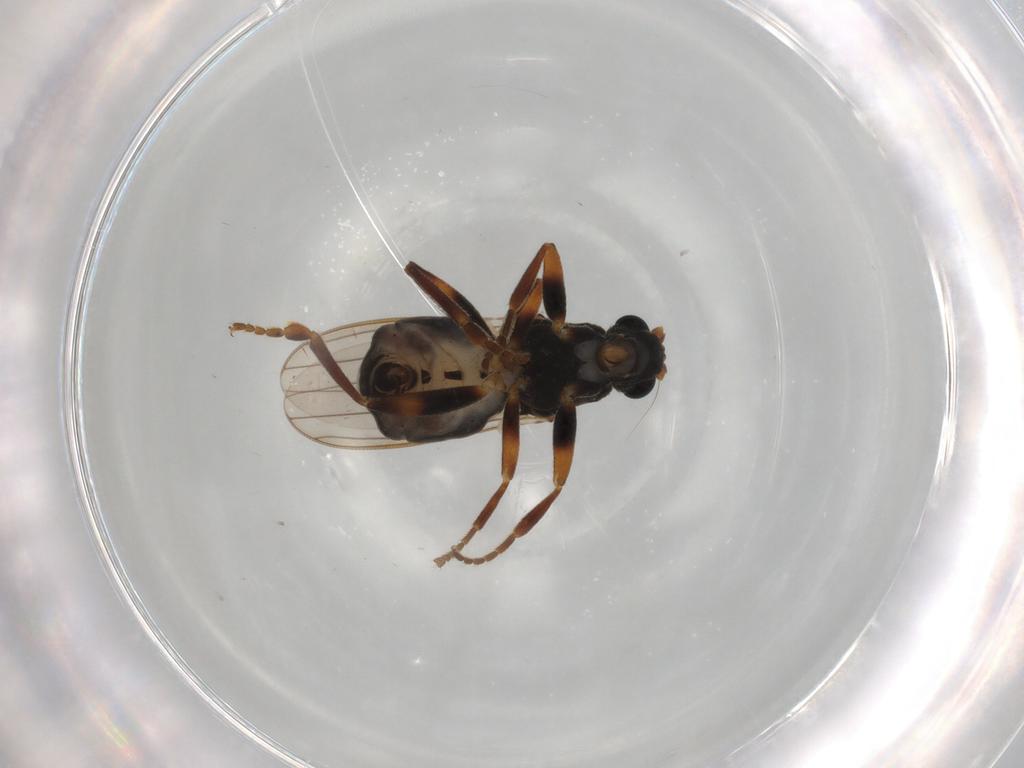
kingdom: Animalia
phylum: Arthropoda
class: Insecta
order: Diptera
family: Sphaeroceridae
